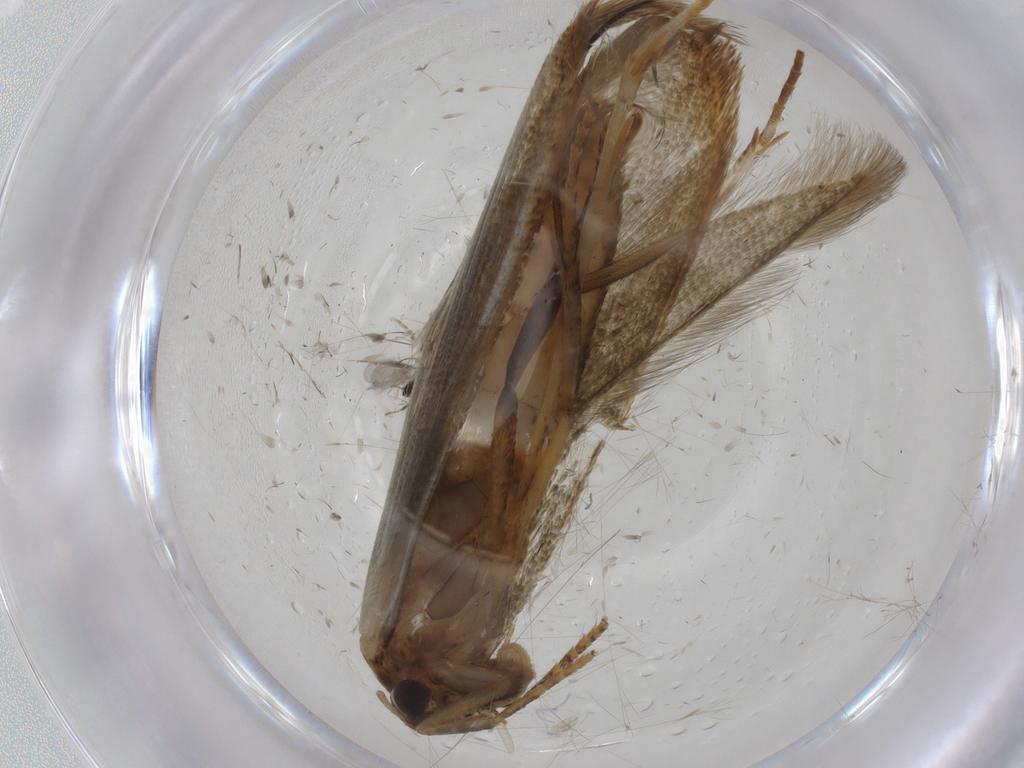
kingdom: Animalia
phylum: Arthropoda
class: Insecta
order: Lepidoptera
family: Blastobasidae
